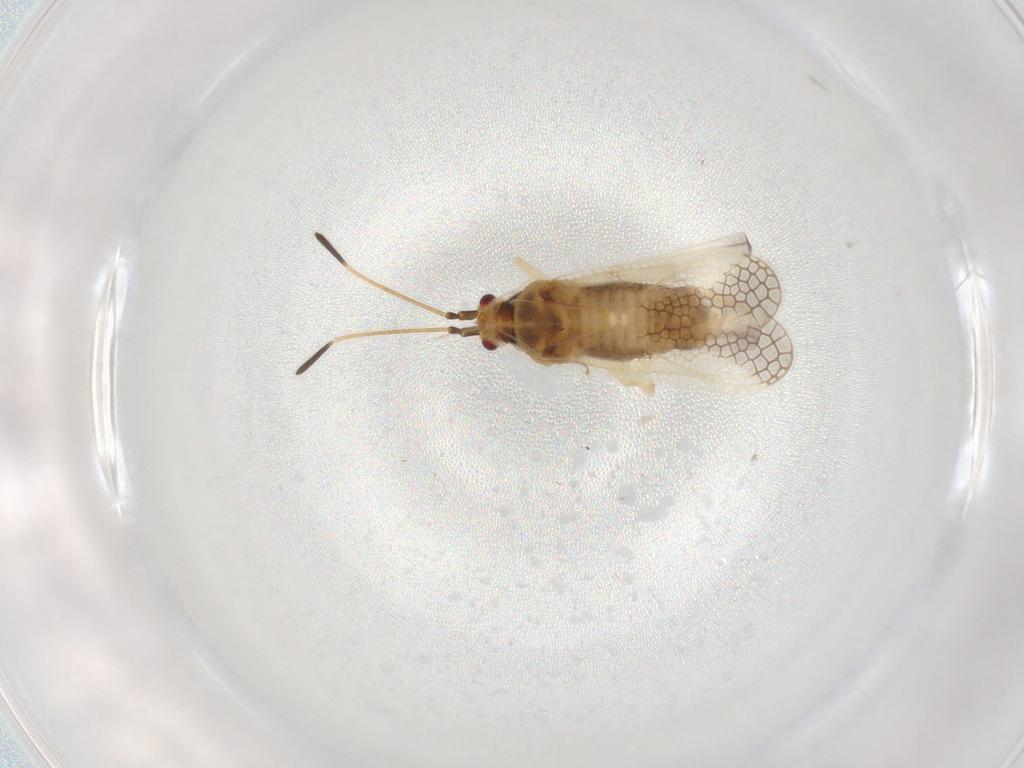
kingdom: Animalia
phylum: Arthropoda
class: Insecta
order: Hemiptera
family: Tingidae
